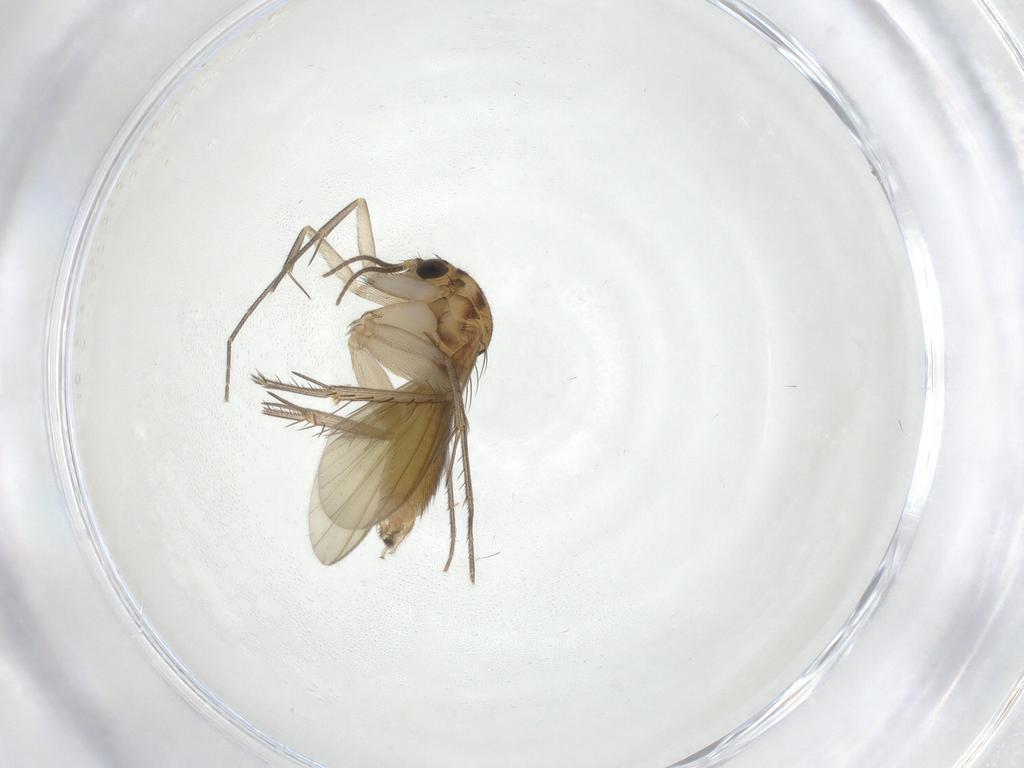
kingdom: Animalia
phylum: Arthropoda
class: Insecta
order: Diptera
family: Mycetophilidae
